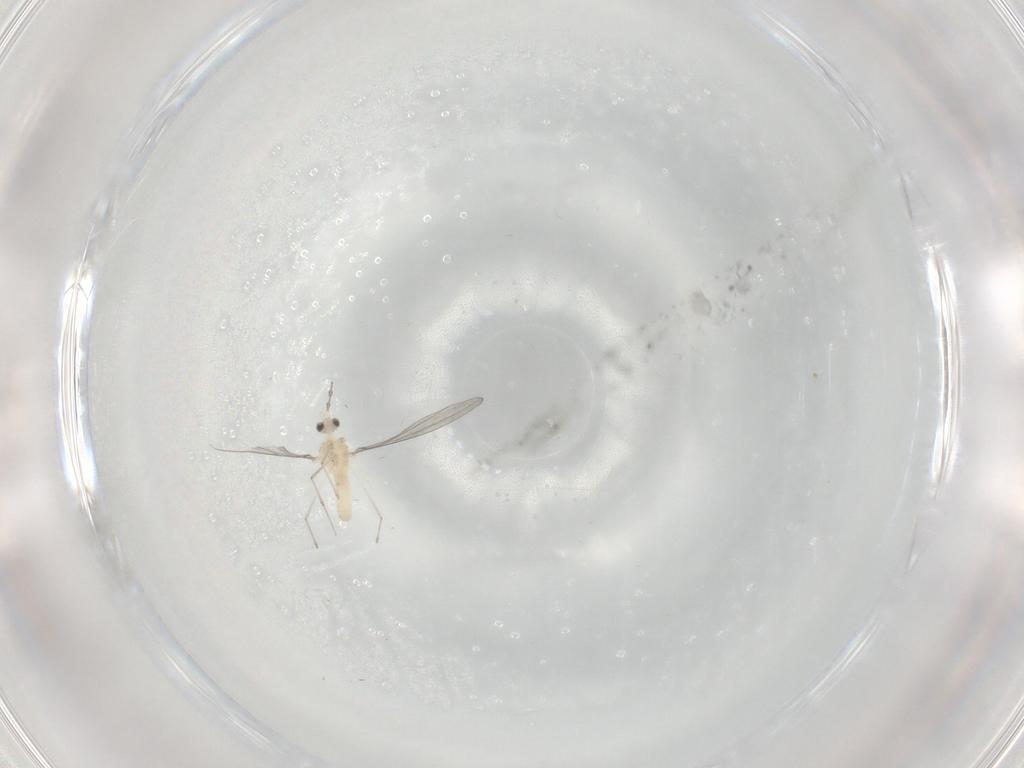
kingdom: Animalia
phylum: Arthropoda
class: Insecta
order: Diptera
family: Cecidomyiidae
